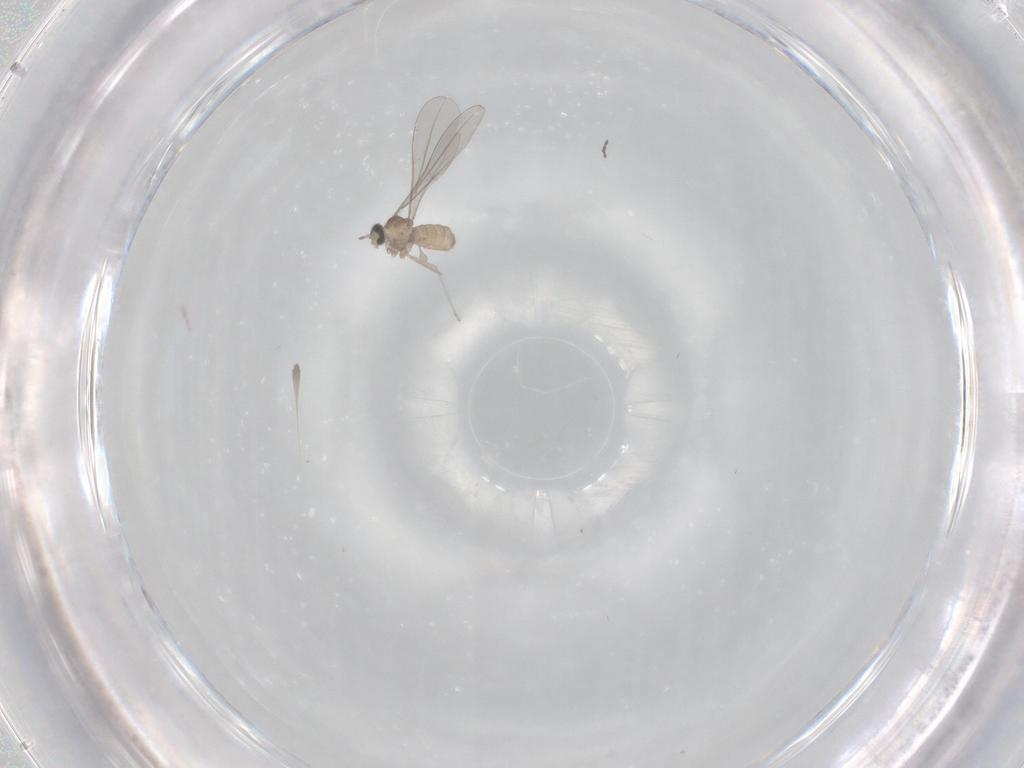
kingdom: Animalia
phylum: Arthropoda
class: Insecta
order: Diptera
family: Cecidomyiidae
